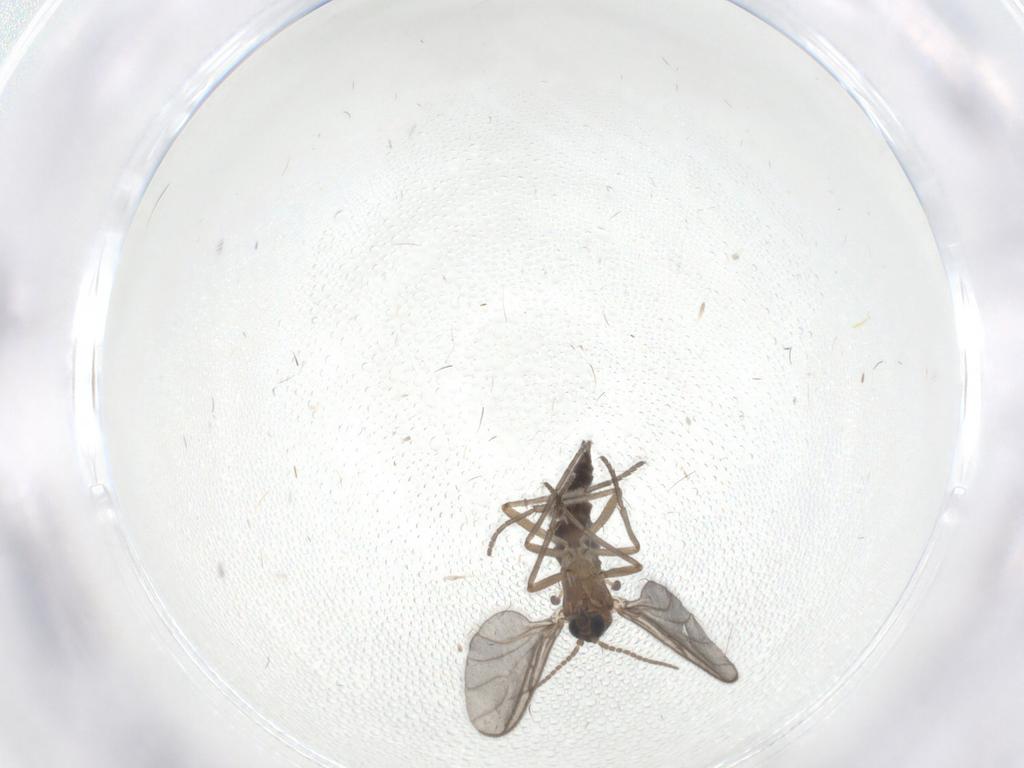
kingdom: Animalia
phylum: Arthropoda
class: Insecta
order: Diptera
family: Sciaridae
